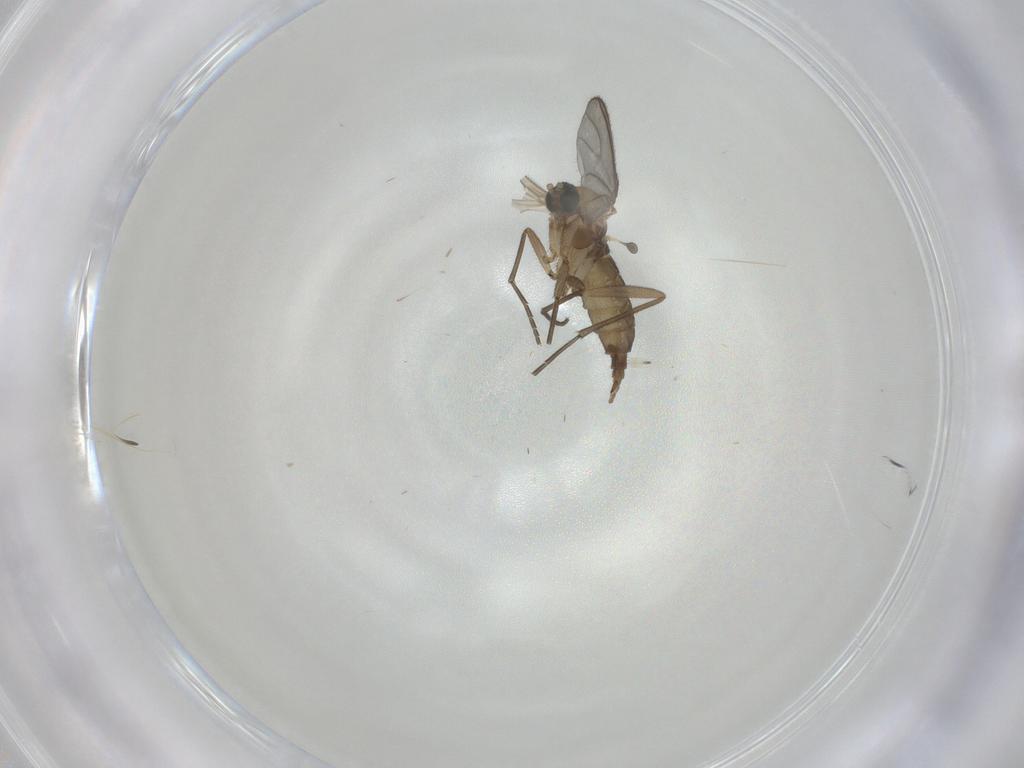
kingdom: Animalia
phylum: Arthropoda
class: Insecta
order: Diptera
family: Sciaridae
